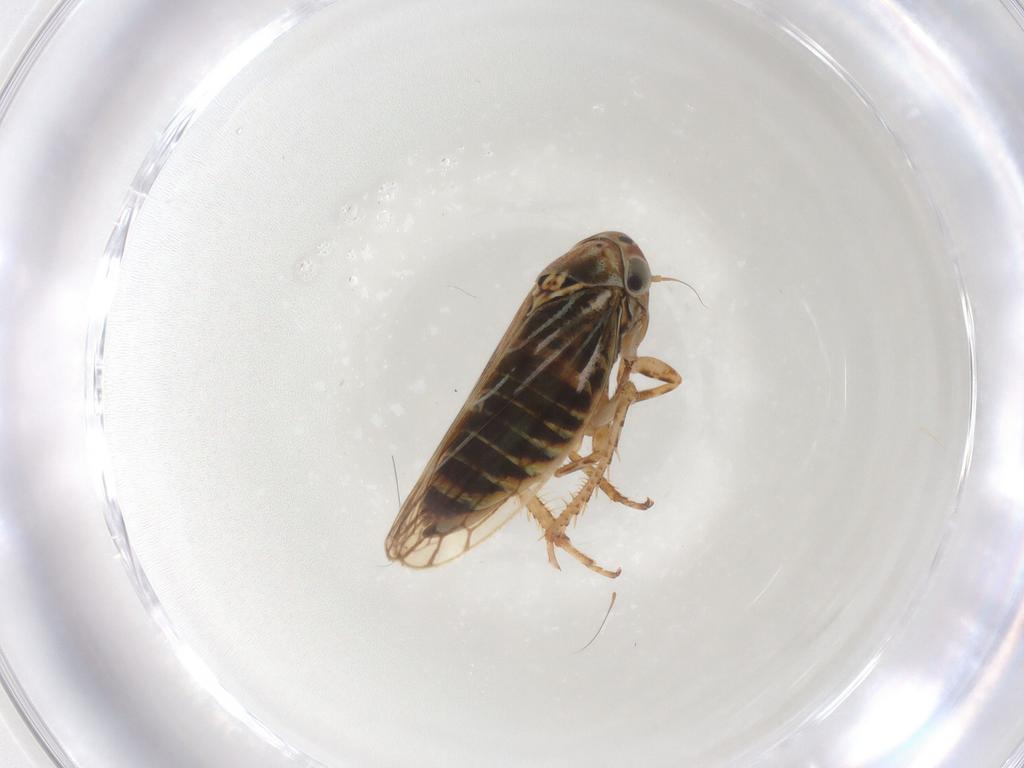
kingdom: Animalia
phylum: Arthropoda
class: Insecta
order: Hemiptera
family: Cicadellidae
